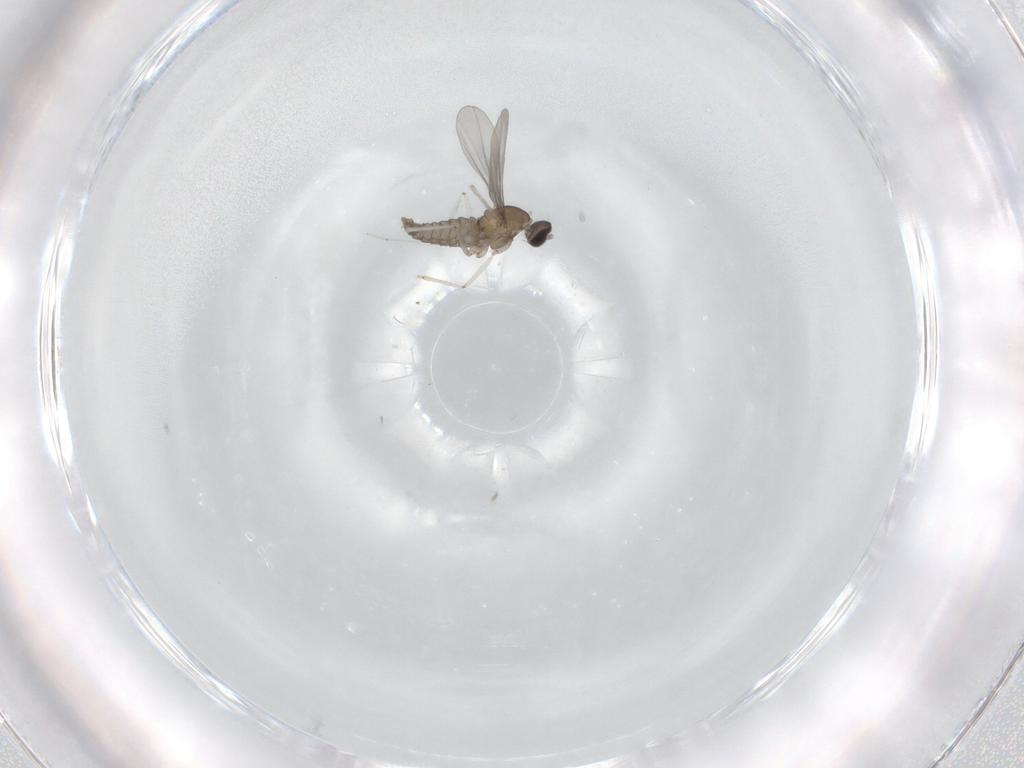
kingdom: Animalia
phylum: Arthropoda
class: Insecta
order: Diptera
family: Cecidomyiidae
